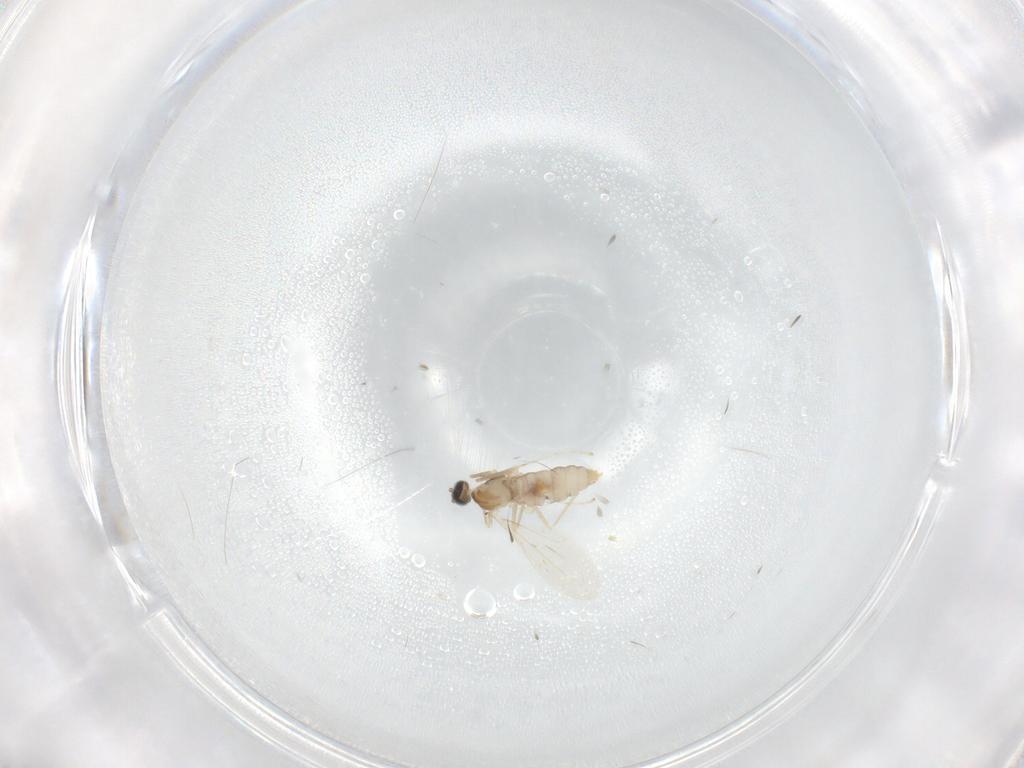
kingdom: Animalia
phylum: Arthropoda
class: Insecta
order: Diptera
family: Cecidomyiidae
